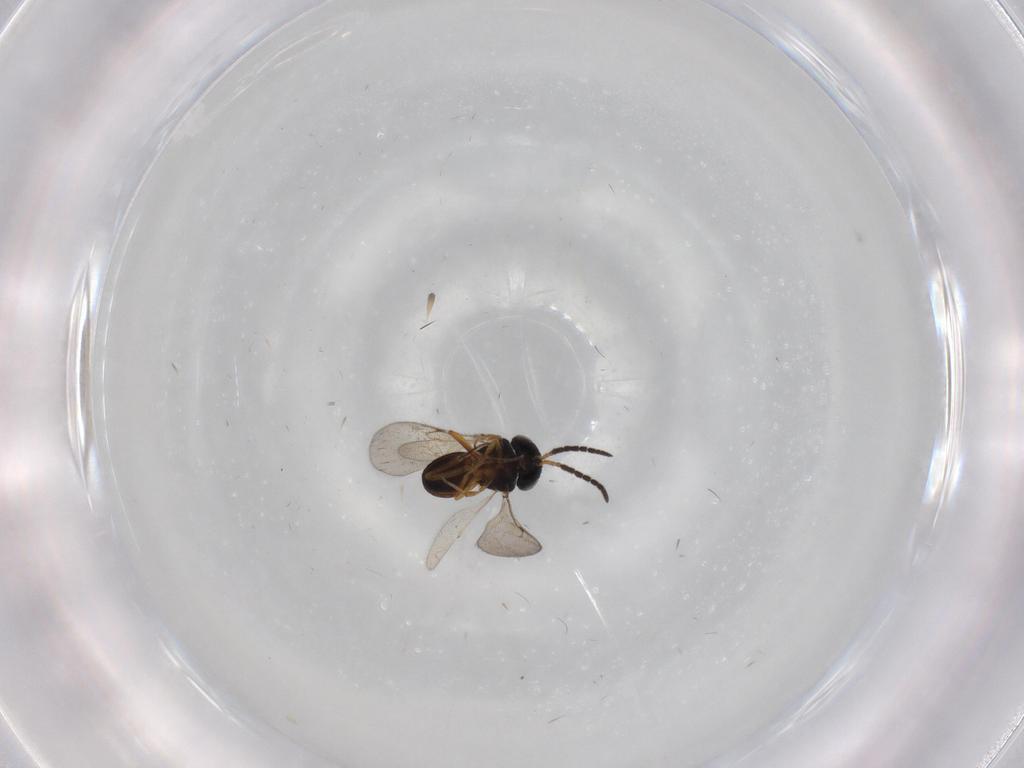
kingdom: Animalia
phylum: Arthropoda
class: Insecta
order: Coleoptera
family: Curculionidae
